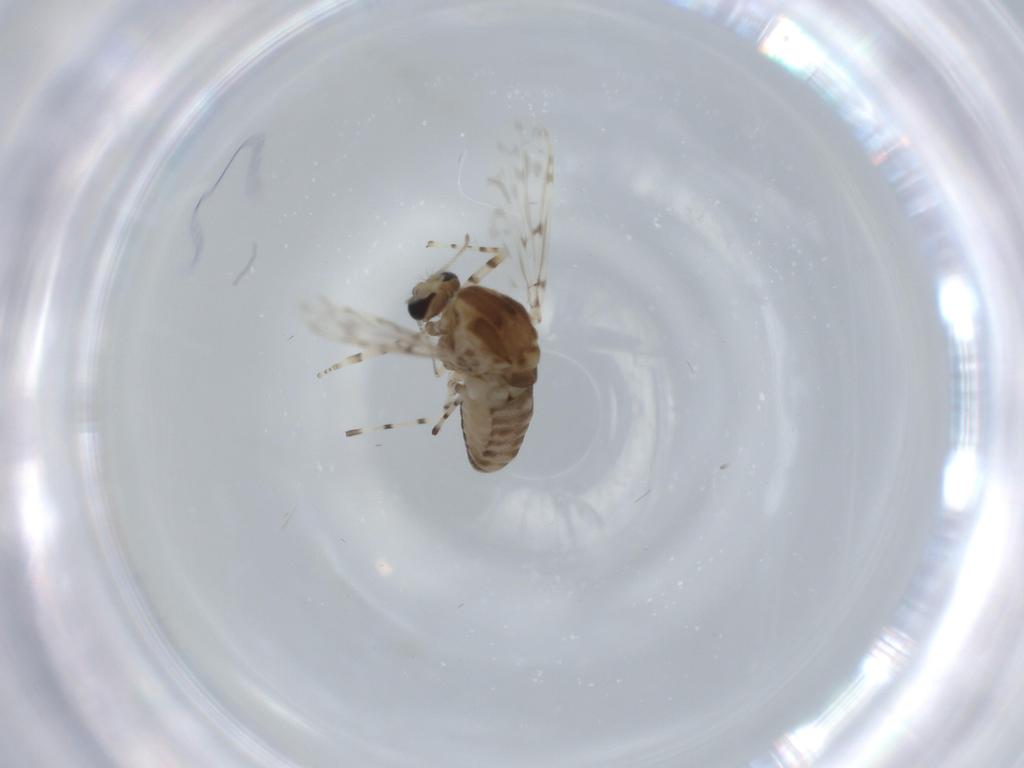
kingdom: Animalia
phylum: Arthropoda
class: Insecta
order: Diptera
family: Chironomidae
